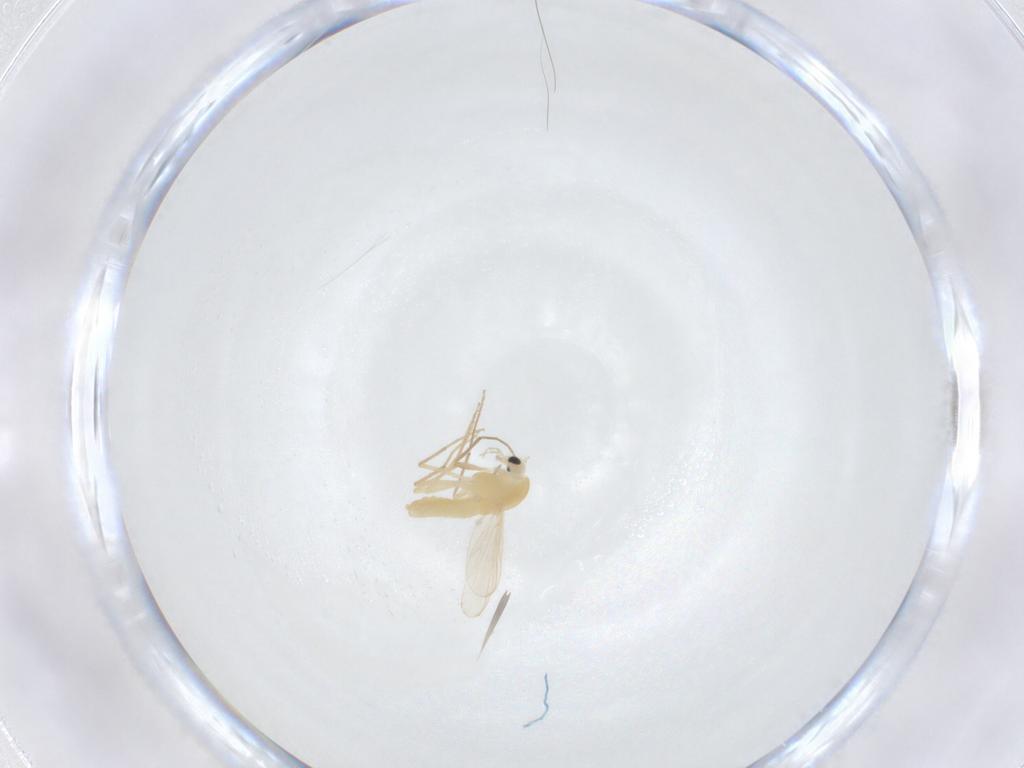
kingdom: Animalia
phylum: Arthropoda
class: Insecta
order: Diptera
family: Chironomidae
